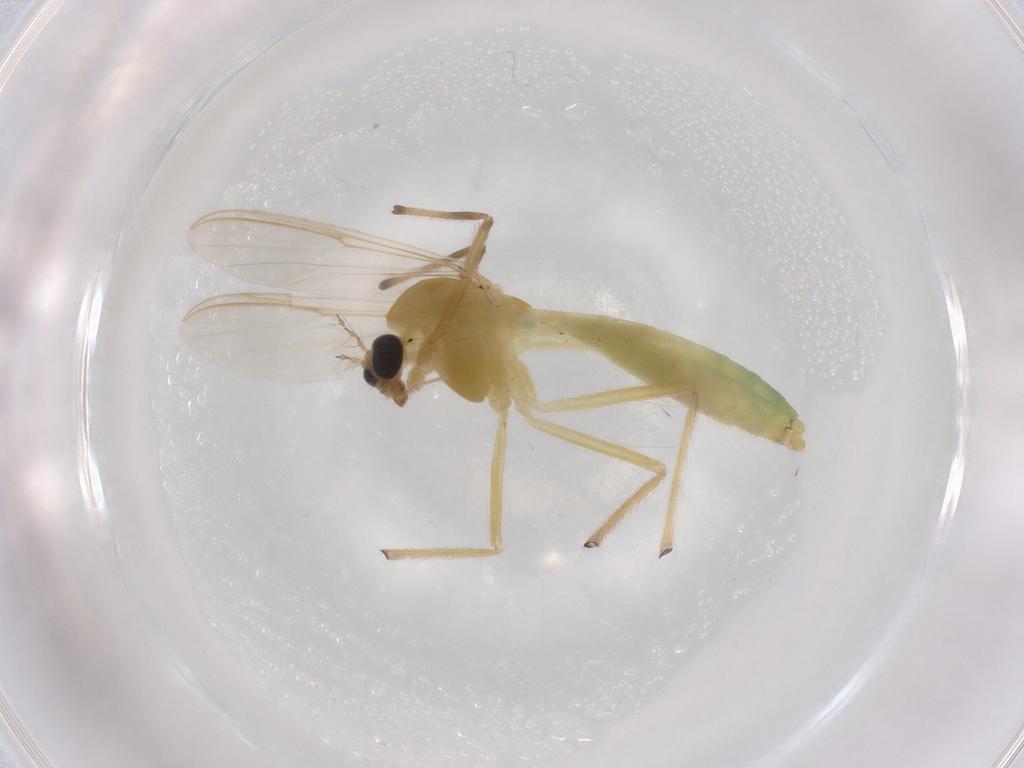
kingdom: Animalia
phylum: Arthropoda
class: Insecta
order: Diptera
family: Chironomidae
